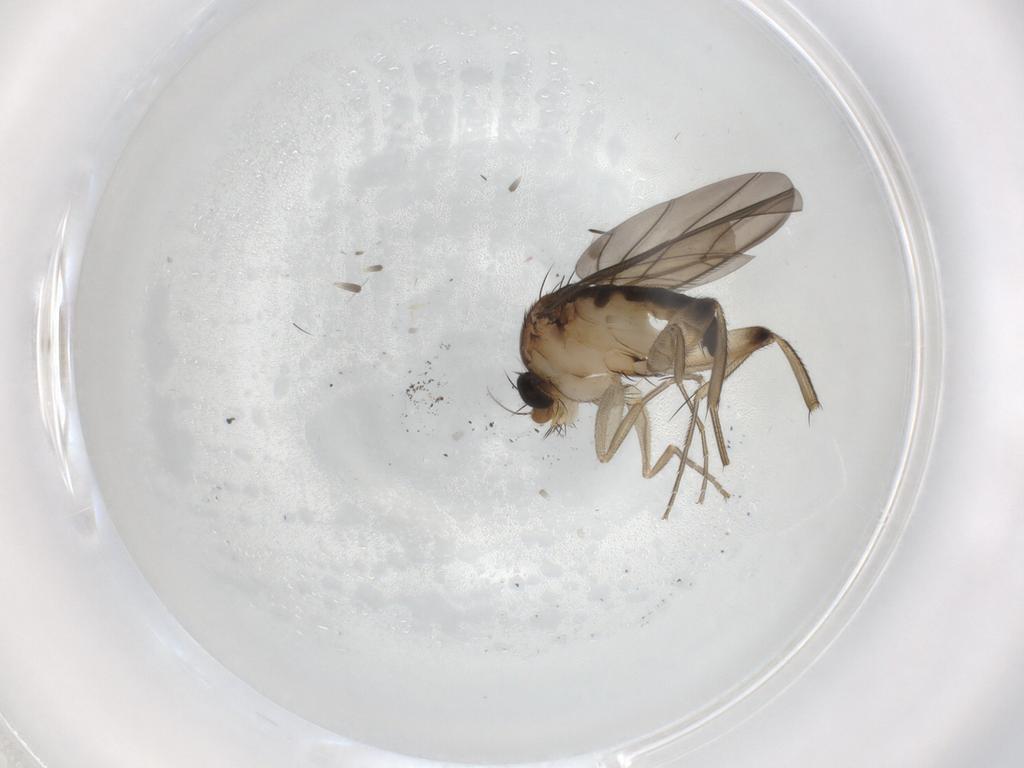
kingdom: Animalia
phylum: Arthropoda
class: Insecta
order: Diptera
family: Phoridae
